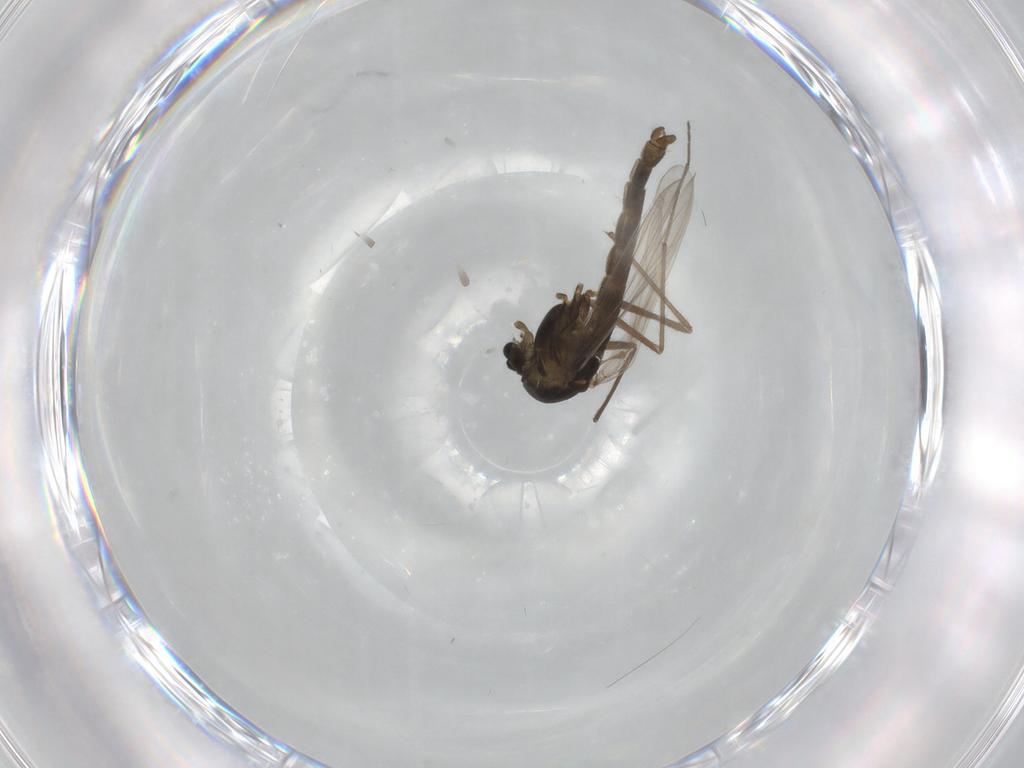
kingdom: Animalia
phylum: Arthropoda
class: Insecta
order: Diptera
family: Chironomidae
